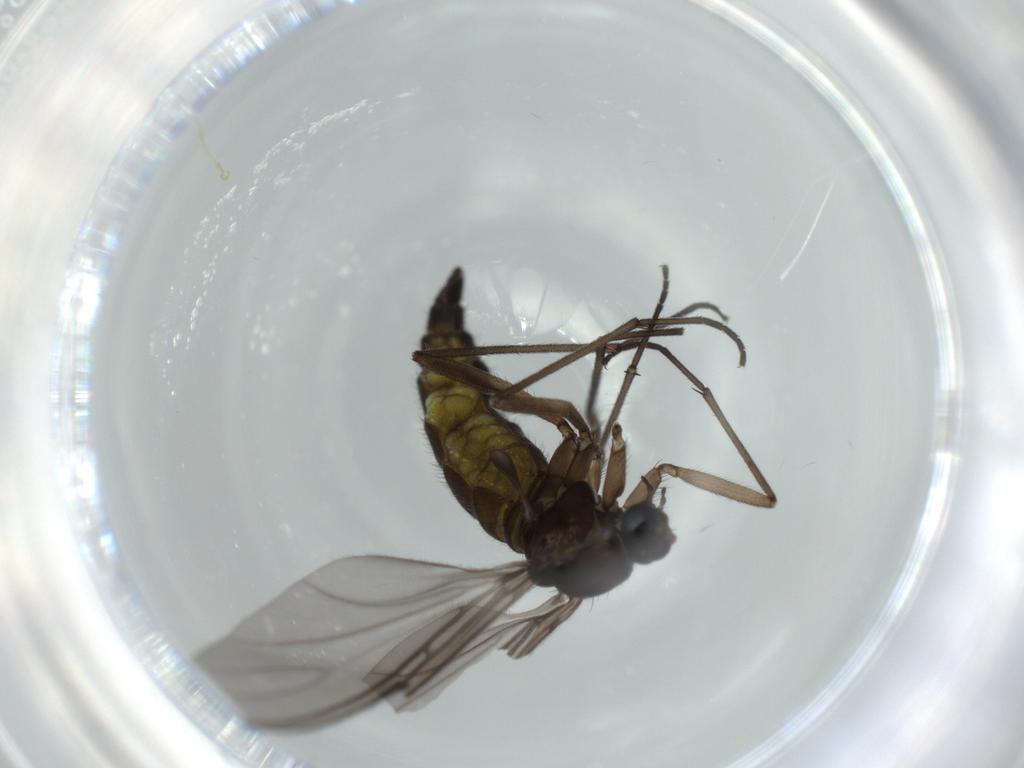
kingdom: Animalia
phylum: Arthropoda
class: Insecta
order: Diptera
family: Sciaridae
